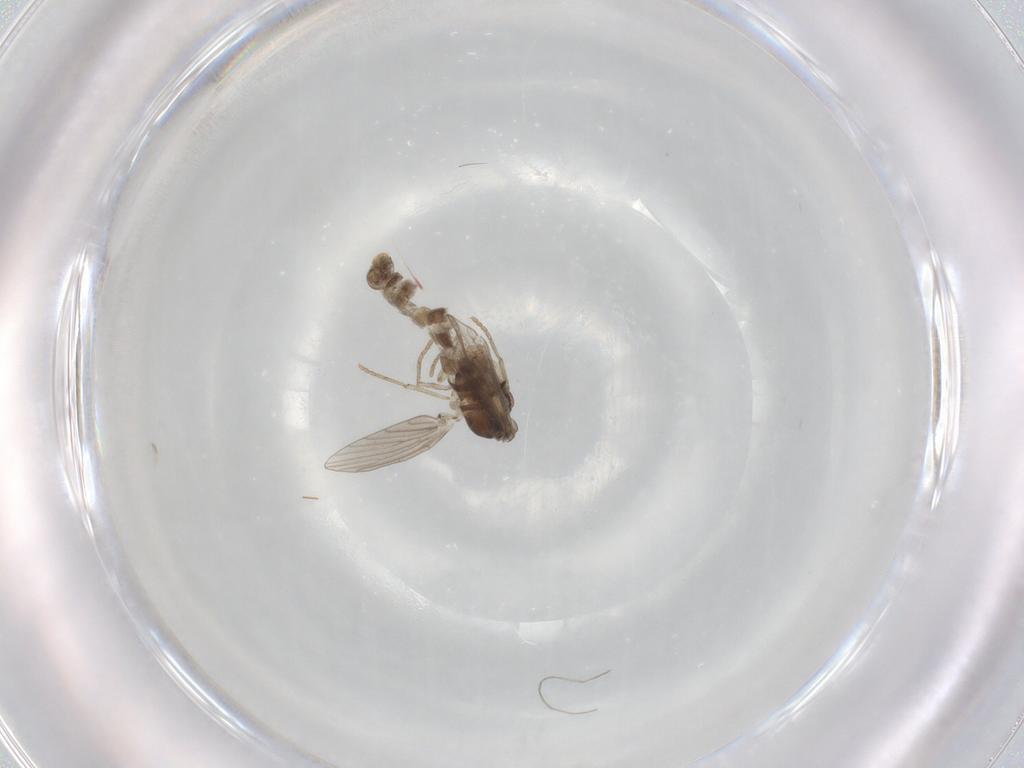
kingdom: Animalia
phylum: Arthropoda
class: Insecta
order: Diptera
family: Psychodidae
